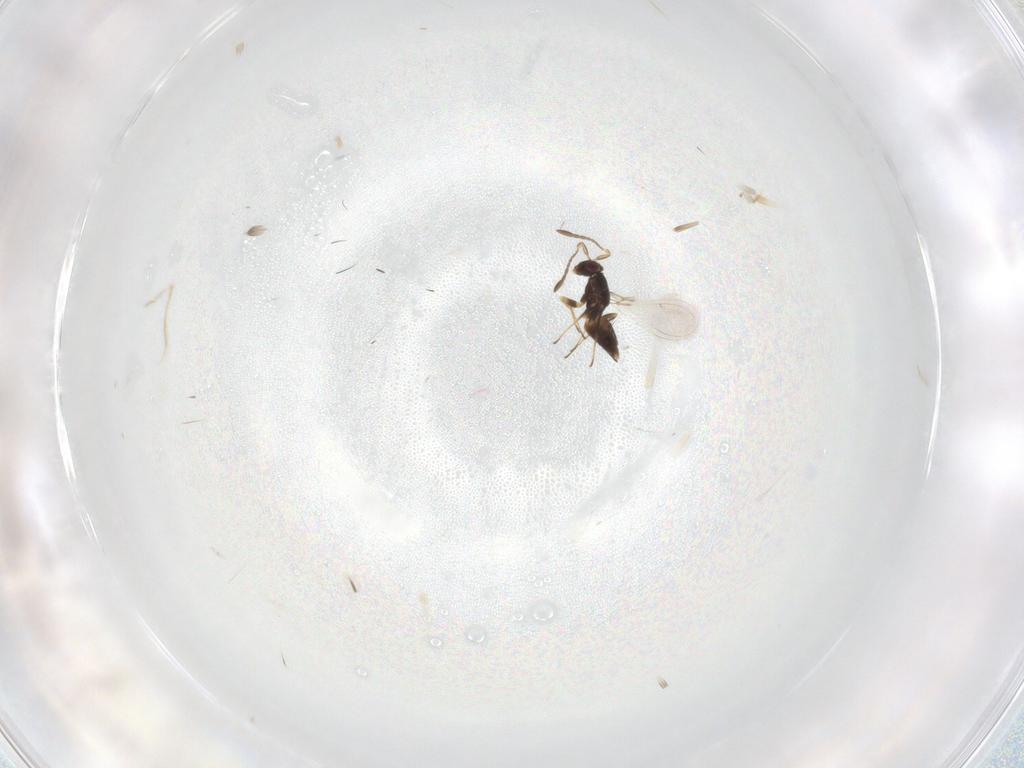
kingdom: Animalia
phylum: Arthropoda
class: Insecta
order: Hymenoptera
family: Mymaridae
